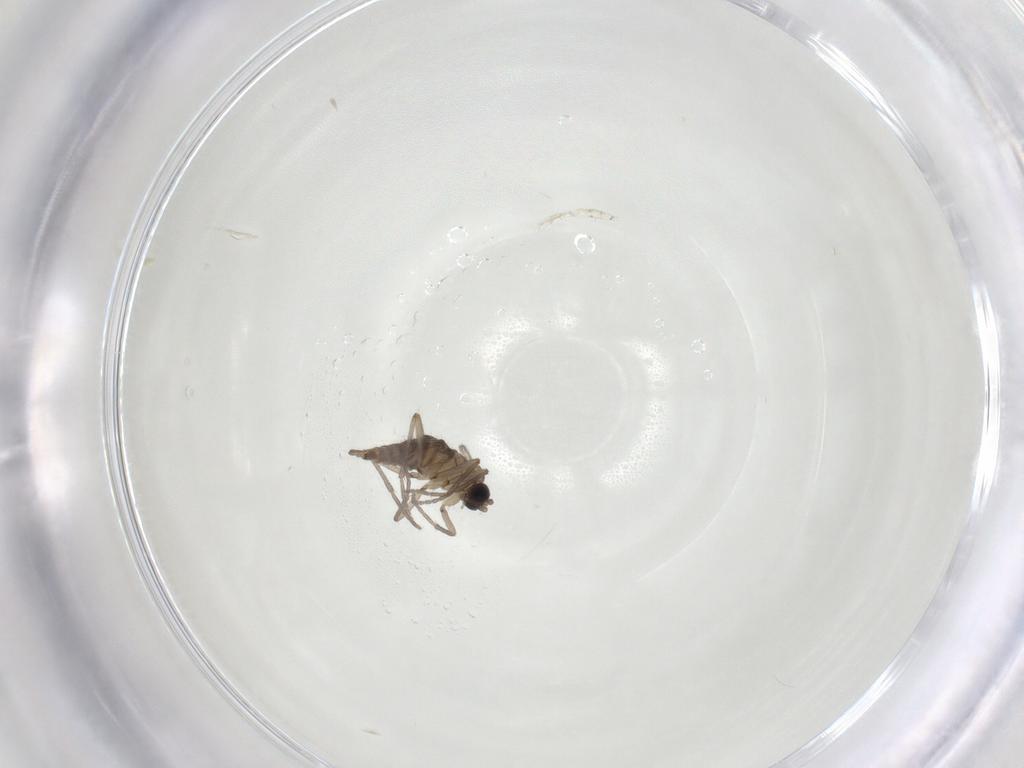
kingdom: Animalia
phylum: Arthropoda
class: Insecta
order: Diptera
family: Sciaridae
